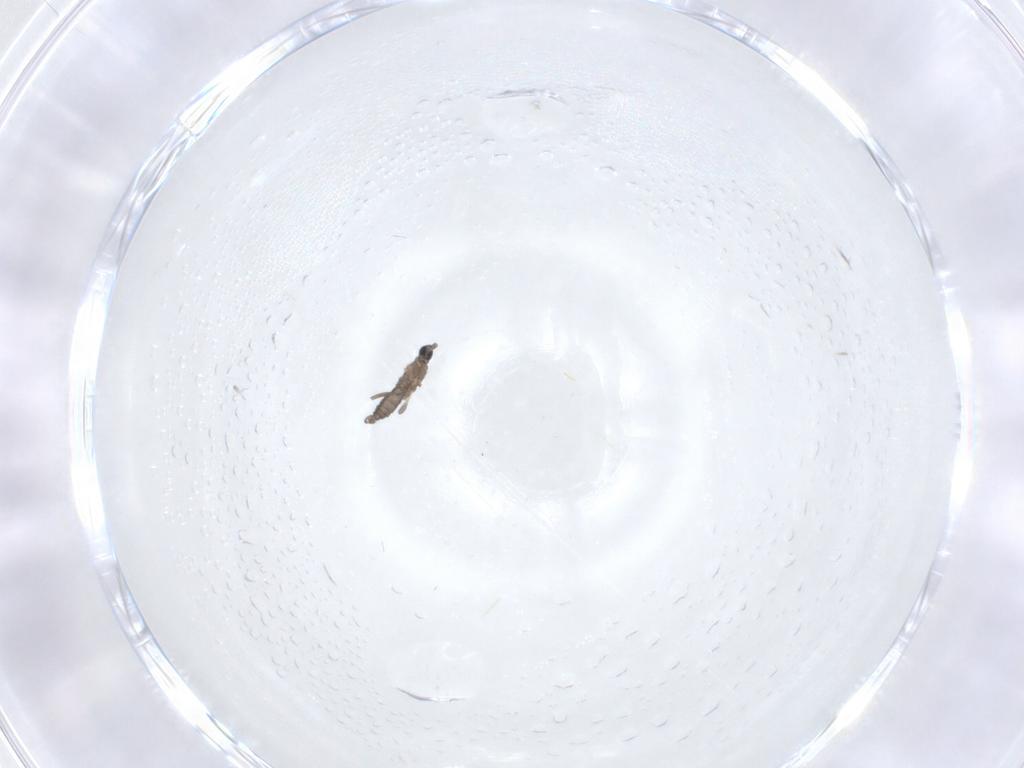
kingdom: Animalia
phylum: Arthropoda
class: Insecta
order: Diptera
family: Sciaridae
